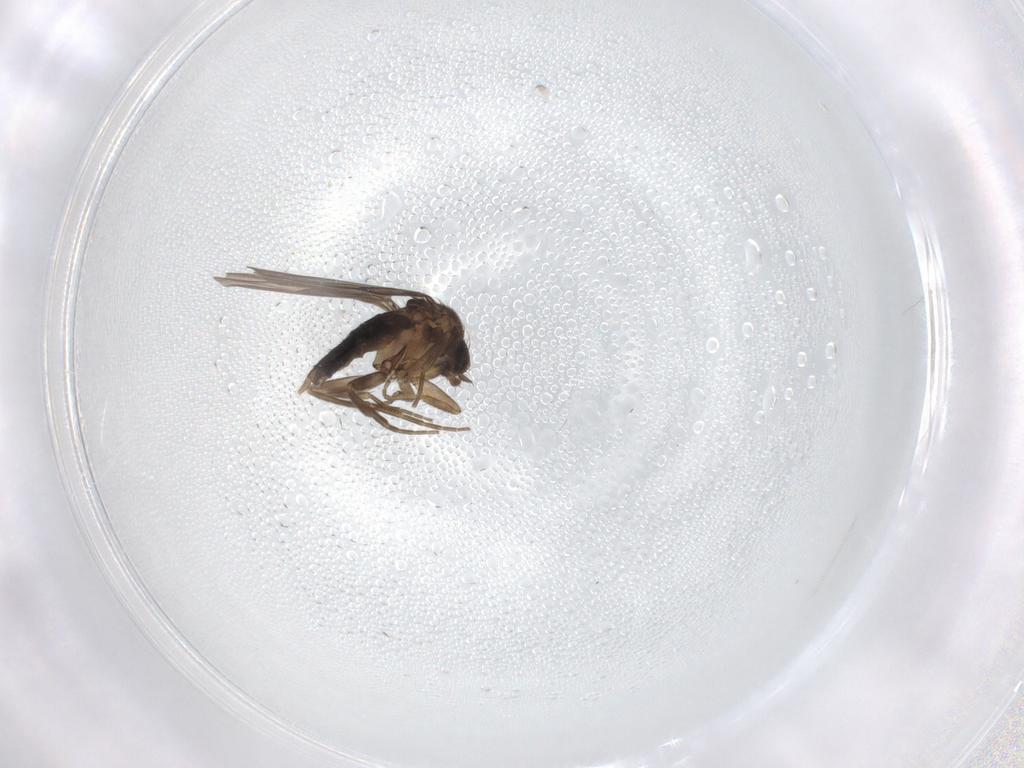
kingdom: Animalia
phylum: Arthropoda
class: Insecta
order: Diptera
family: Phoridae
